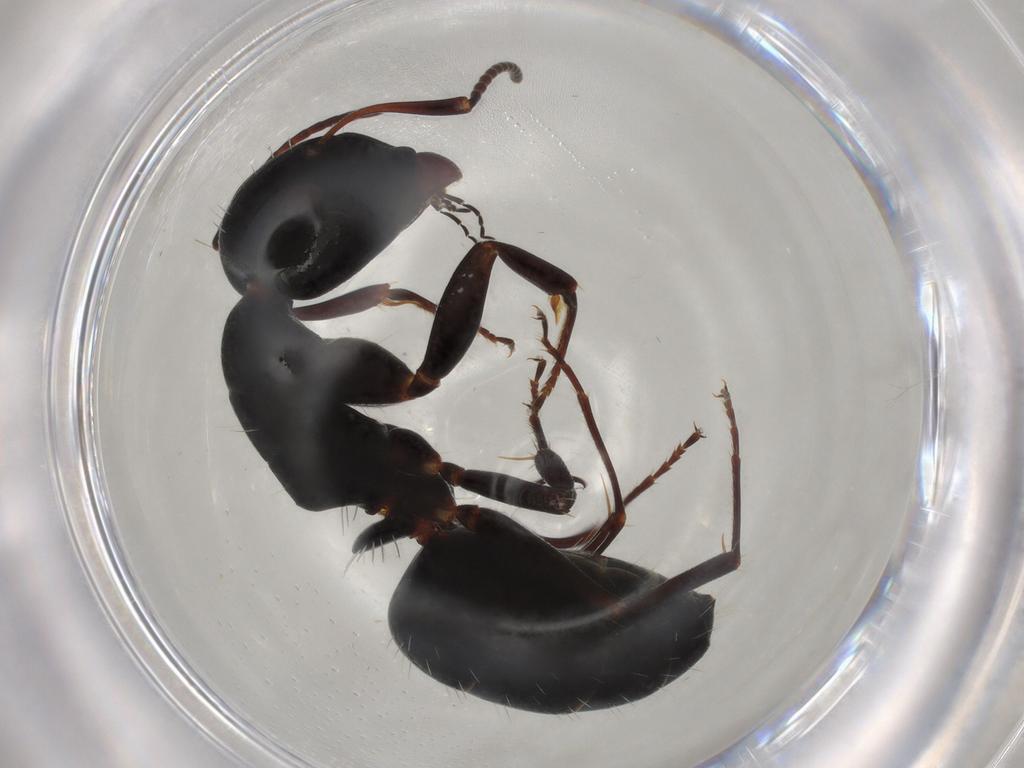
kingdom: Animalia
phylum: Arthropoda
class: Insecta
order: Hymenoptera
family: Formicidae
